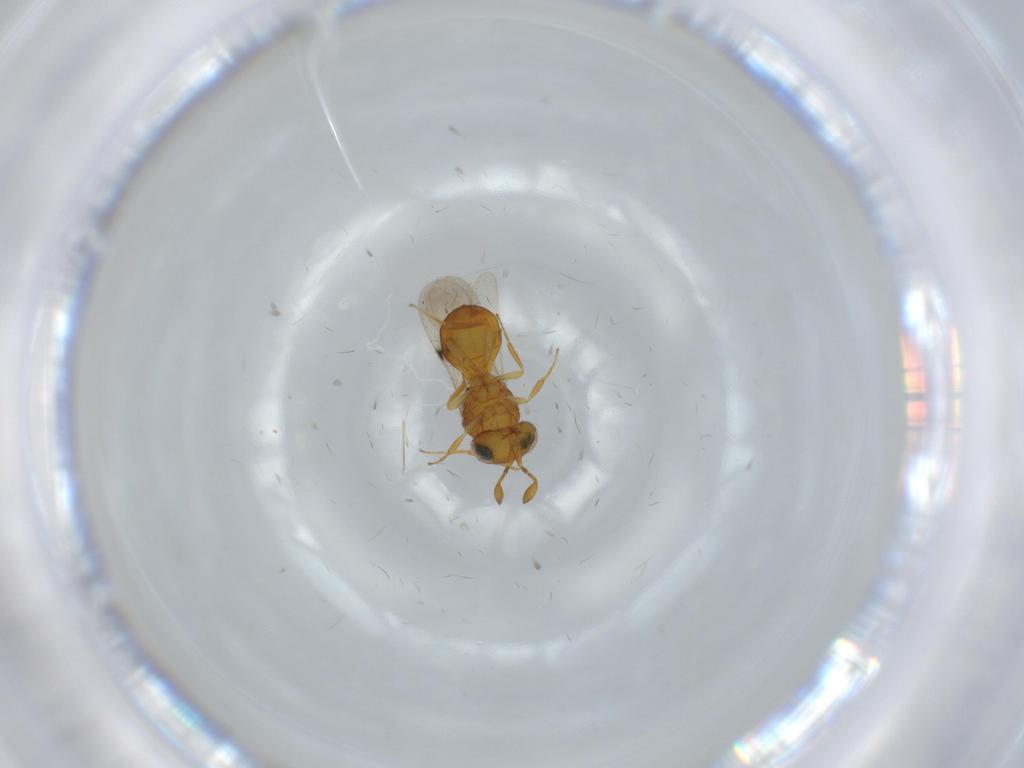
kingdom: Animalia
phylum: Arthropoda
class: Insecta
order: Hymenoptera
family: Scelionidae
